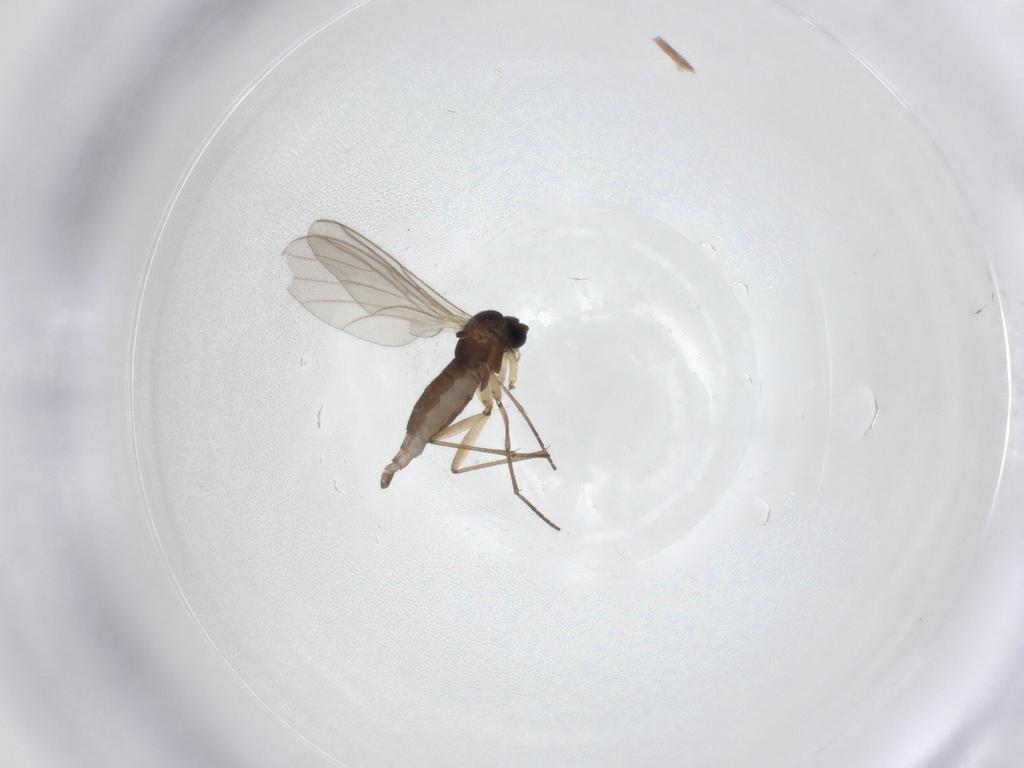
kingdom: Animalia
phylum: Arthropoda
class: Insecta
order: Diptera
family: Sciaridae
